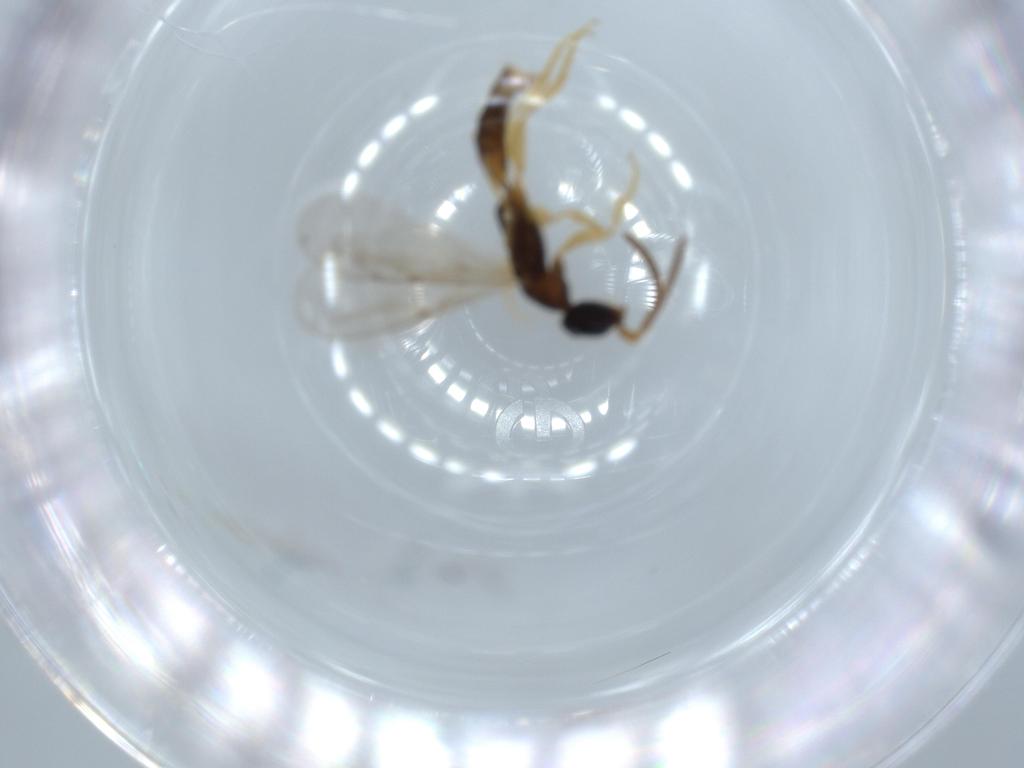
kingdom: Animalia
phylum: Arthropoda
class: Insecta
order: Hymenoptera
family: Bethylidae
